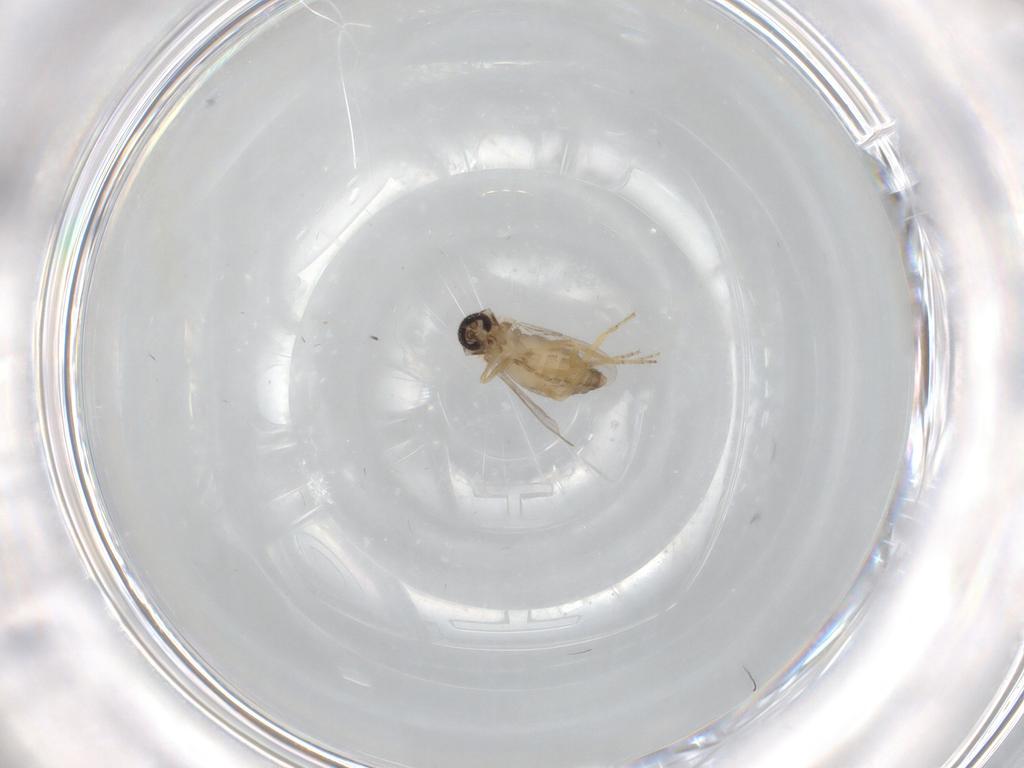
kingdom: Animalia
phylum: Arthropoda
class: Insecta
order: Diptera
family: Ceratopogonidae
